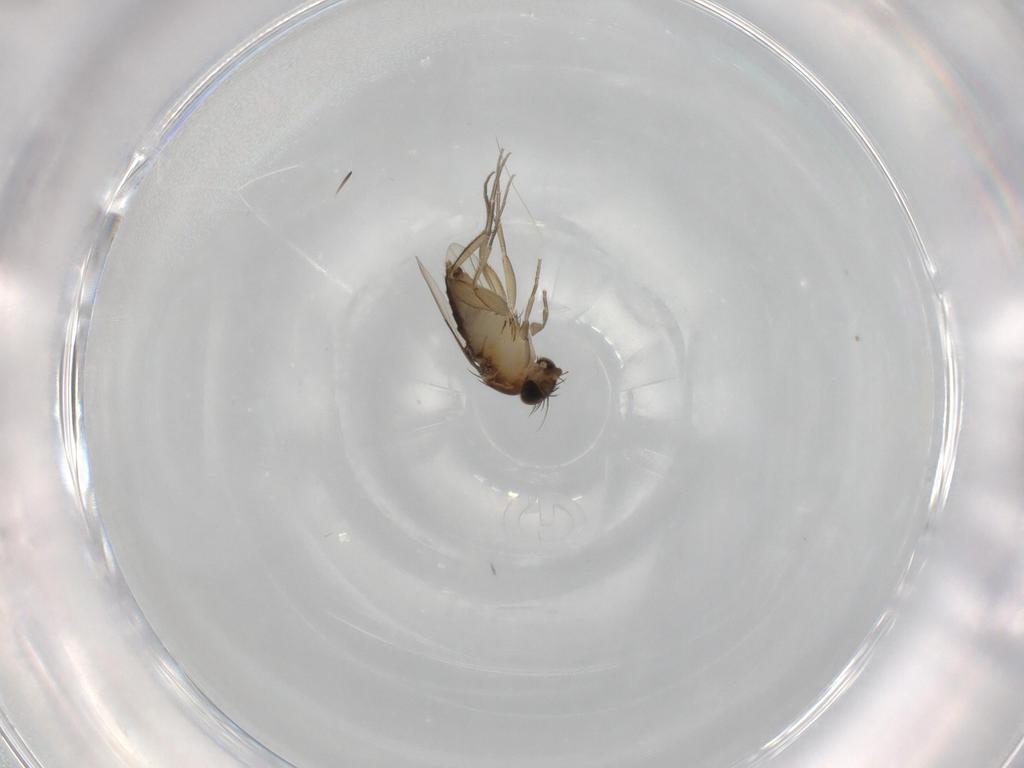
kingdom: Animalia
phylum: Arthropoda
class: Insecta
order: Diptera
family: Phoridae
